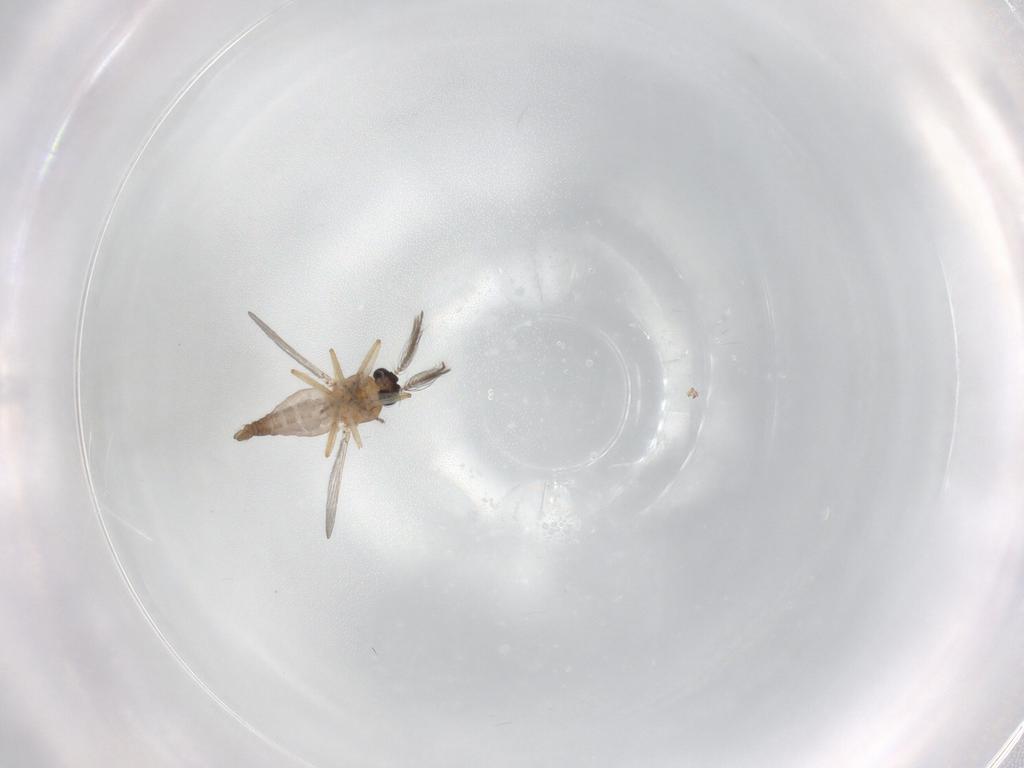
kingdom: Animalia
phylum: Arthropoda
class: Insecta
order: Diptera
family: Chironomidae
